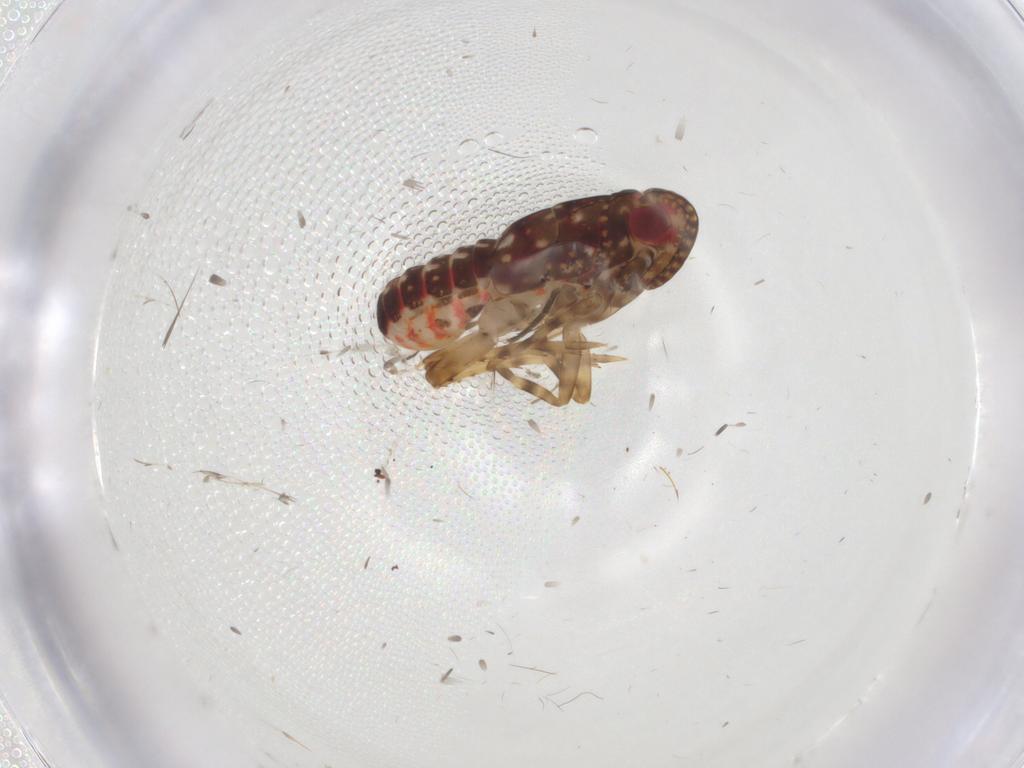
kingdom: Animalia
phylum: Arthropoda
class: Insecta
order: Hemiptera
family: Delphacidae
